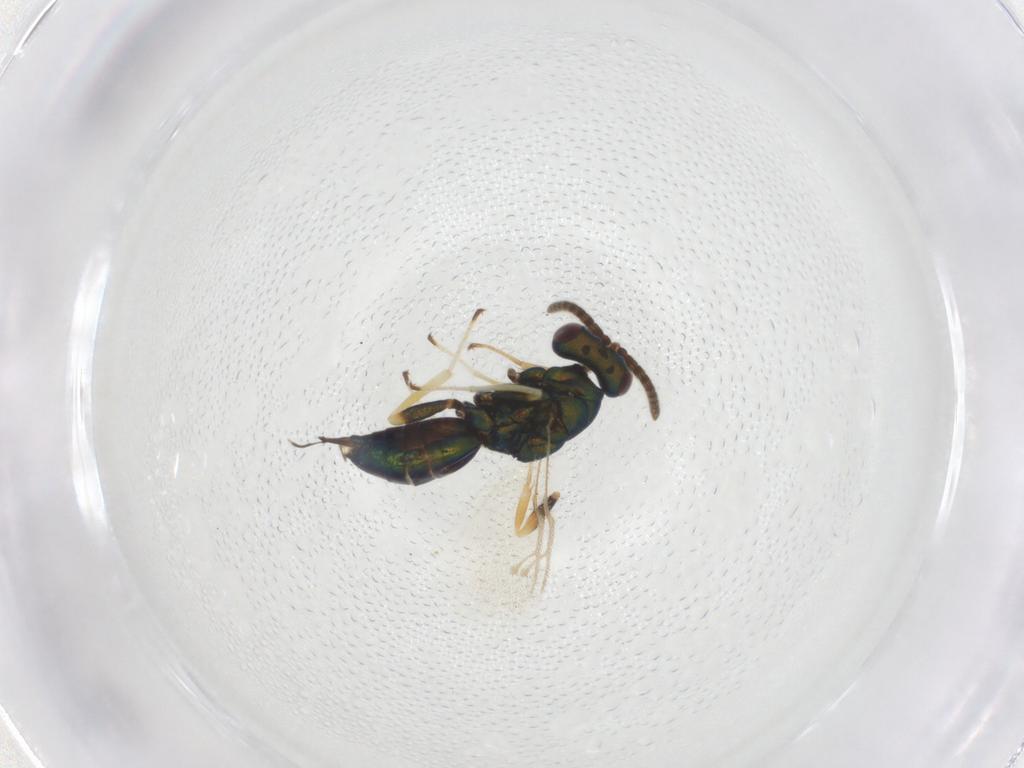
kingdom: Animalia
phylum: Arthropoda
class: Insecta
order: Hymenoptera
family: Pteromalidae
